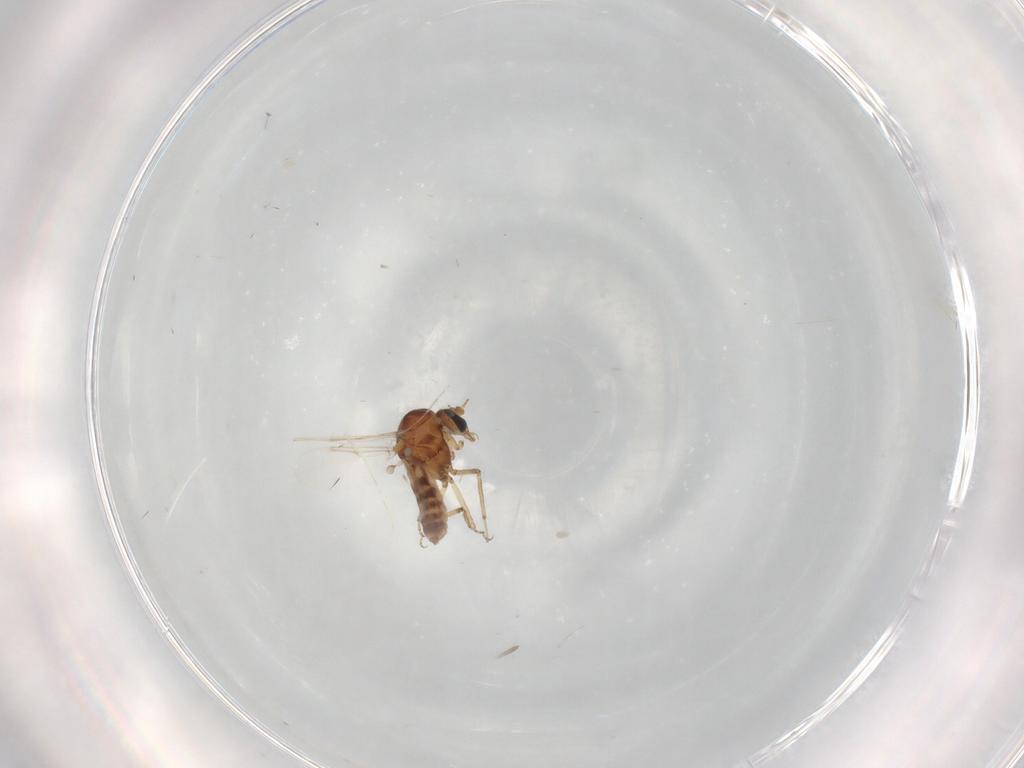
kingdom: Animalia
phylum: Arthropoda
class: Insecta
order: Diptera
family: Ceratopogonidae
